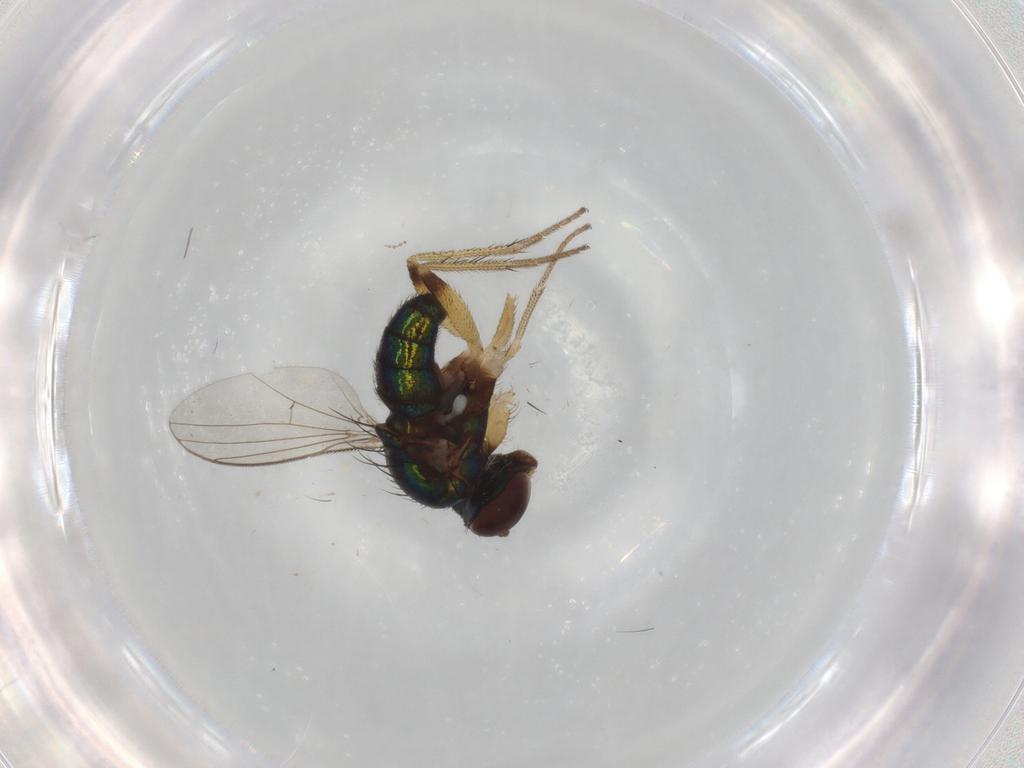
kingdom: Animalia
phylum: Arthropoda
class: Insecta
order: Diptera
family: Dolichopodidae
